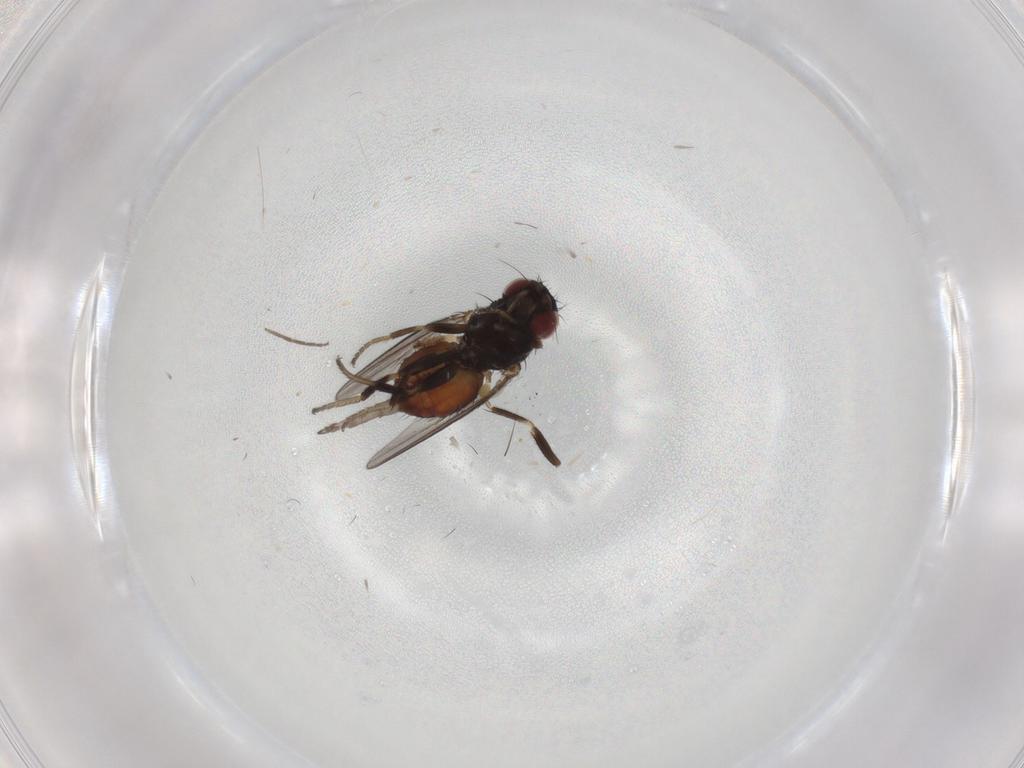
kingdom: Animalia
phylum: Arthropoda
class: Insecta
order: Diptera
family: Milichiidae
